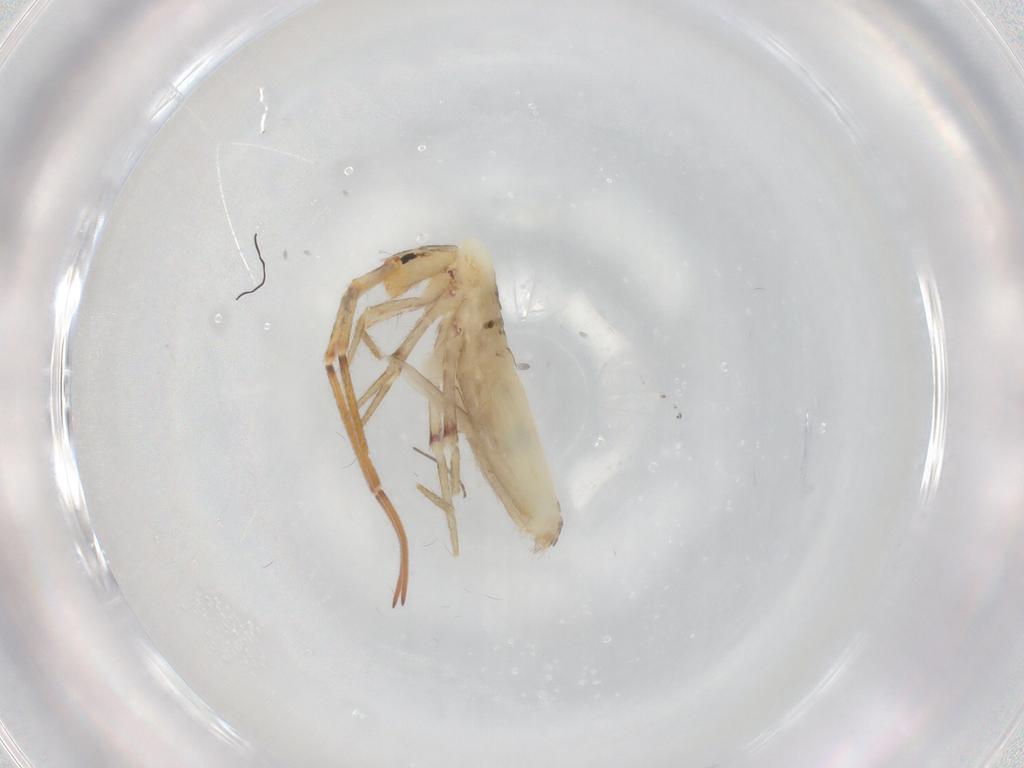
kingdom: Animalia
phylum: Arthropoda
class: Collembola
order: Poduromorpha
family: Hypogastruridae
